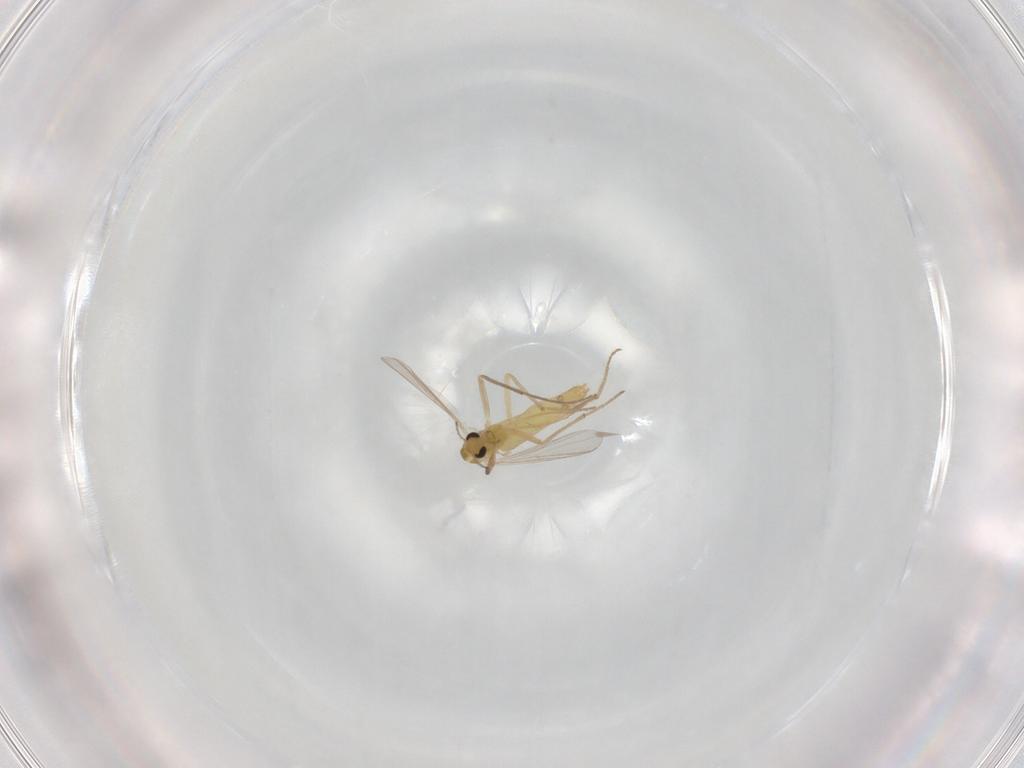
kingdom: Animalia
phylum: Arthropoda
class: Insecta
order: Diptera
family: Chironomidae
